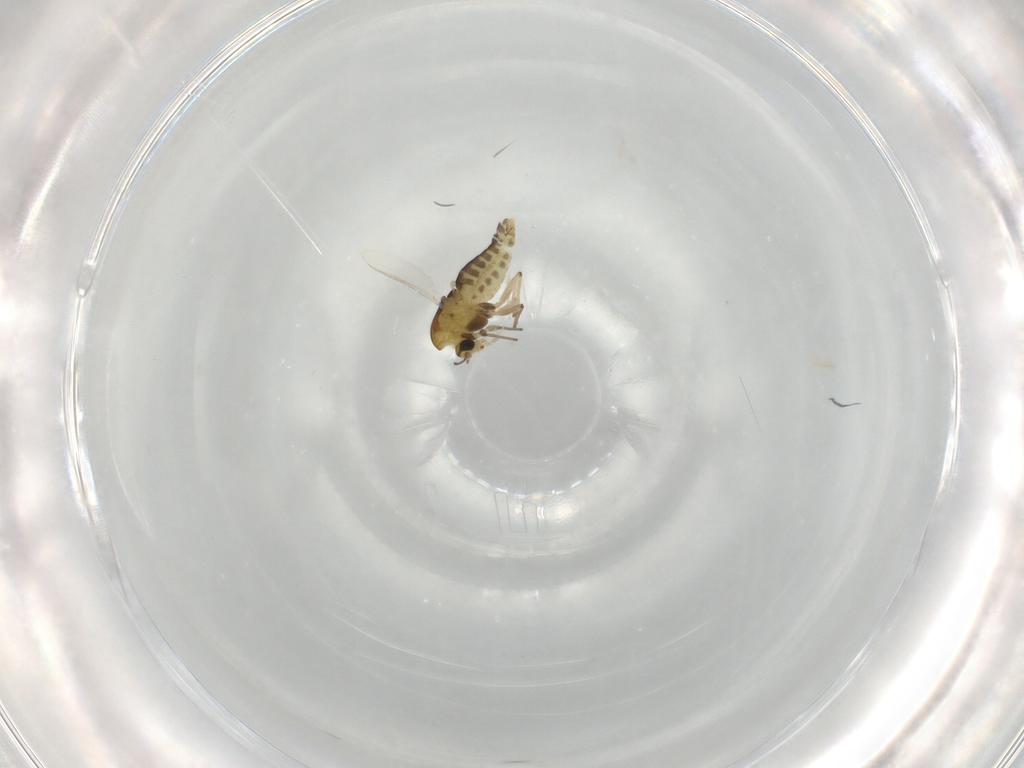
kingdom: Animalia
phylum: Arthropoda
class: Insecta
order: Diptera
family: Chironomidae
